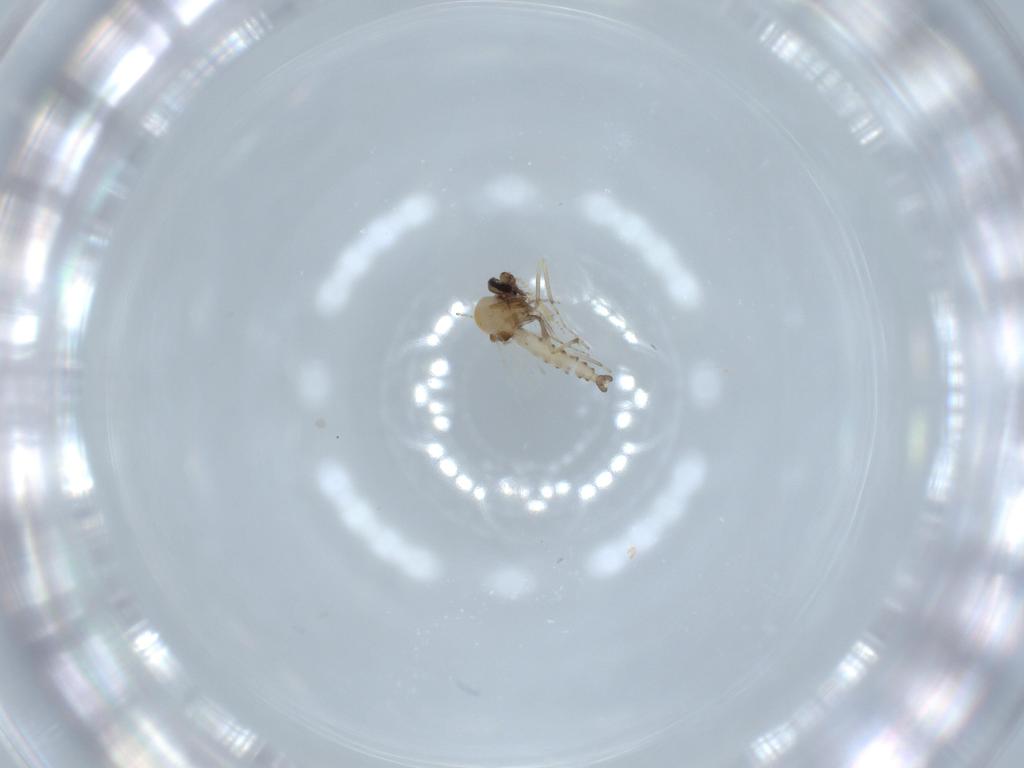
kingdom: Animalia
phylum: Arthropoda
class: Insecta
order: Diptera
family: Ceratopogonidae
